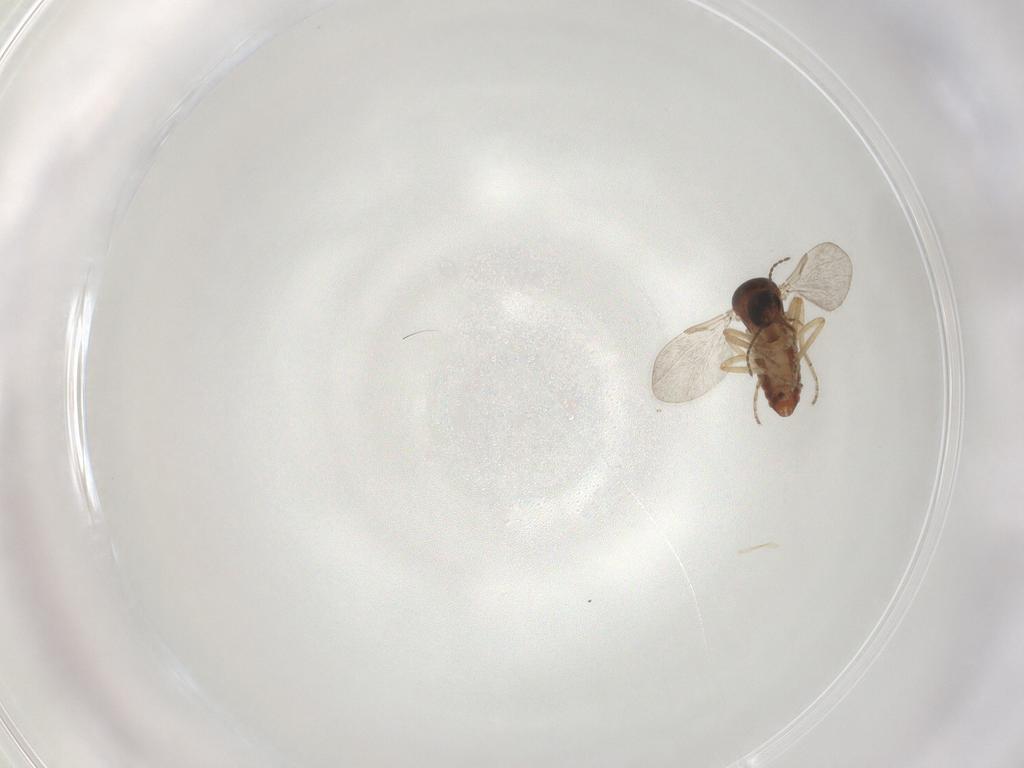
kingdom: Animalia
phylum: Arthropoda
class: Insecta
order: Diptera
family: Ceratopogonidae
